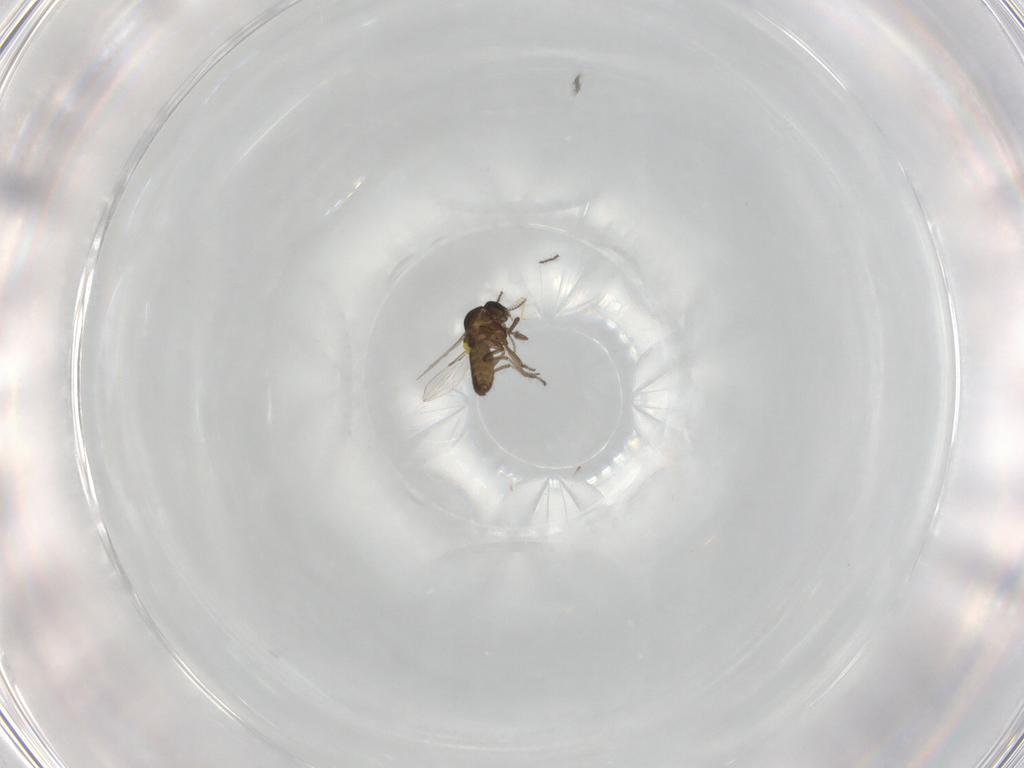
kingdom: Animalia
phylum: Arthropoda
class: Insecta
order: Diptera
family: Ceratopogonidae
